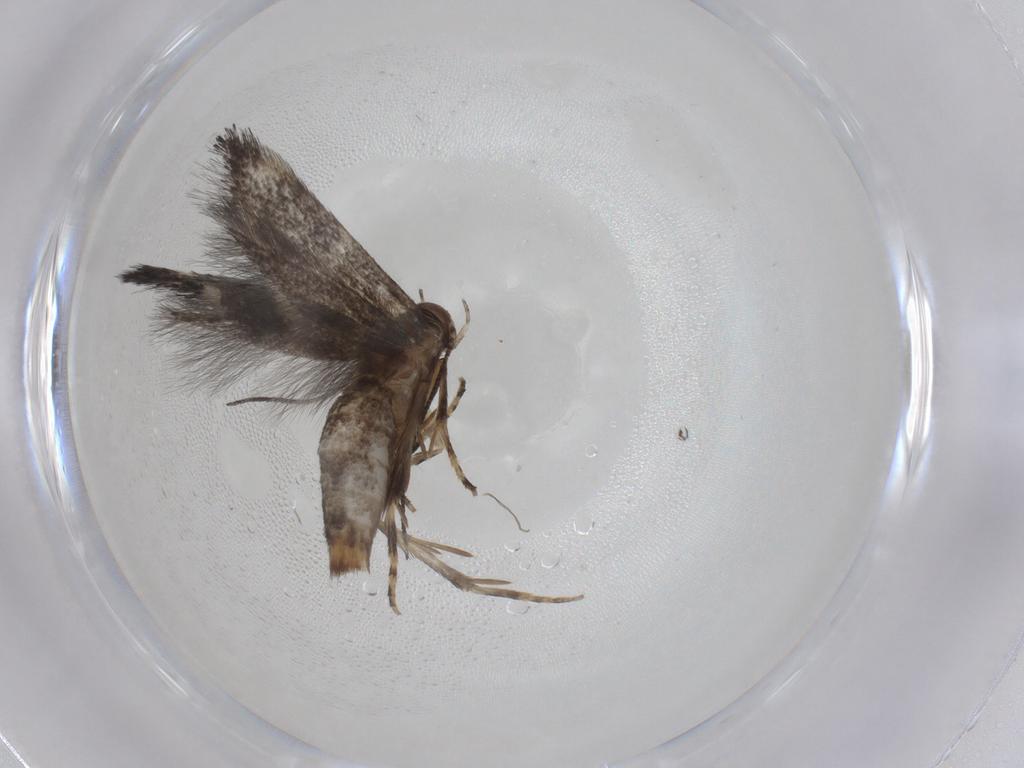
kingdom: Animalia
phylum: Arthropoda
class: Insecta
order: Lepidoptera
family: Elachistidae
